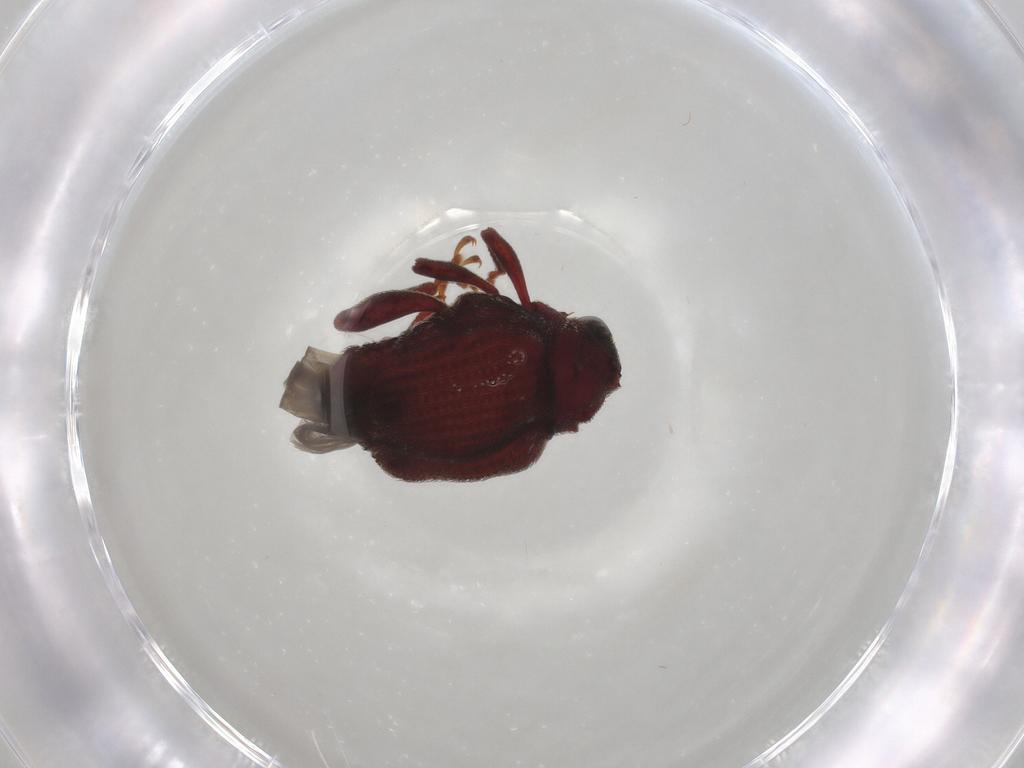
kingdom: Animalia
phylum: Arthropoda
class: Insecta
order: Coleoptera
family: Curculionidae
